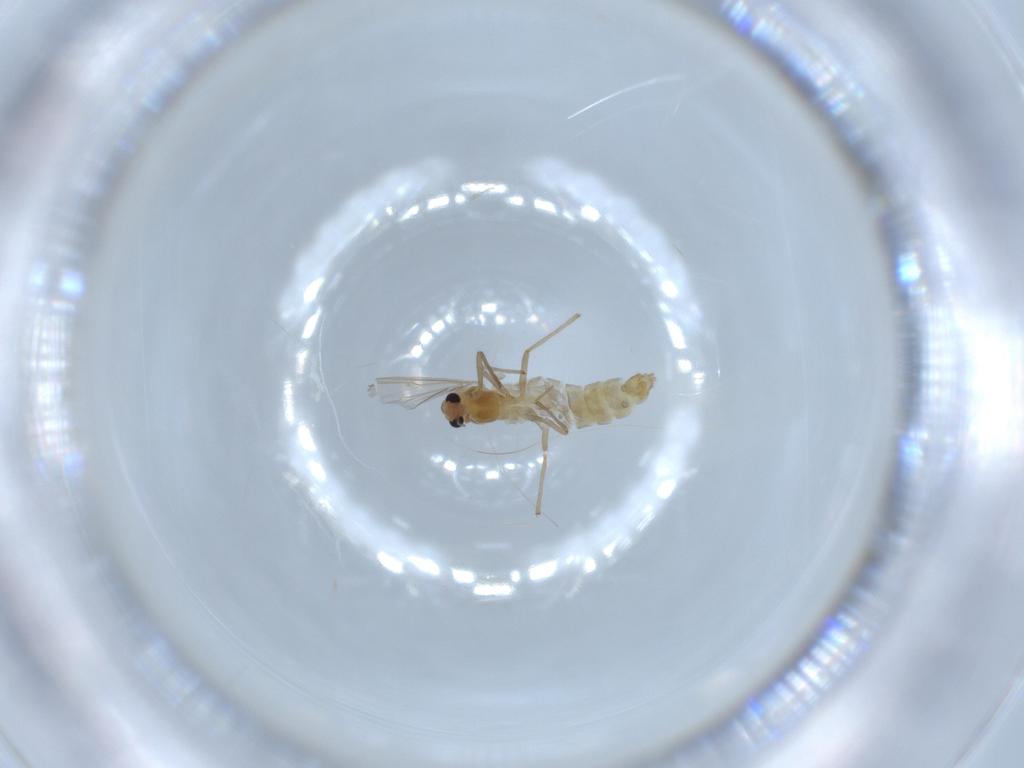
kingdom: Animalia
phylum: Arthropoda
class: Insecta
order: Diptera
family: Chironomidae
